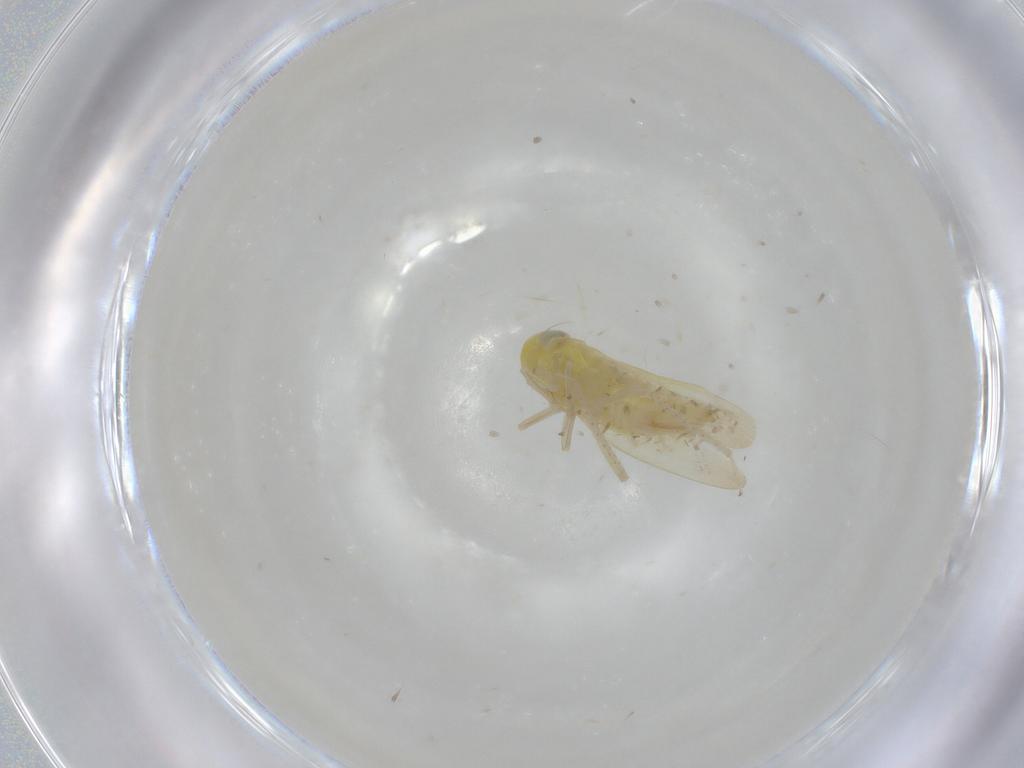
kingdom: Animalia
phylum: Arthropoda
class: Insecta
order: Hemiptera
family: Cicadellidae
